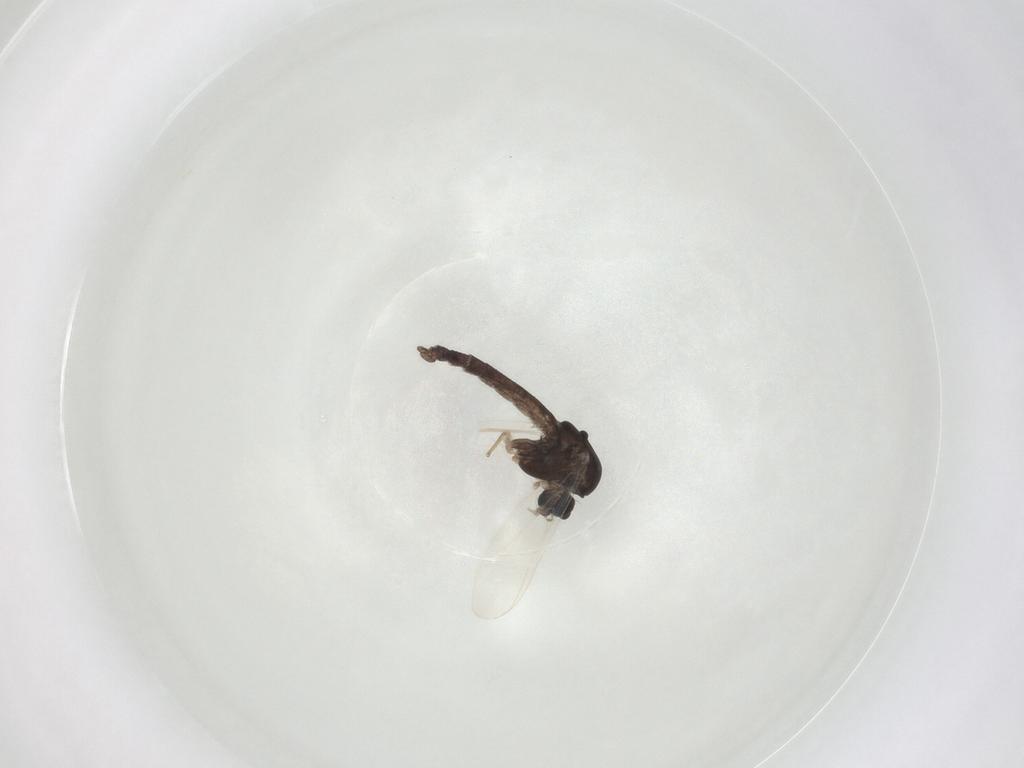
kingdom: Animalia
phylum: Arthropoda
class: Insecta
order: Diptera
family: Chironomidae
